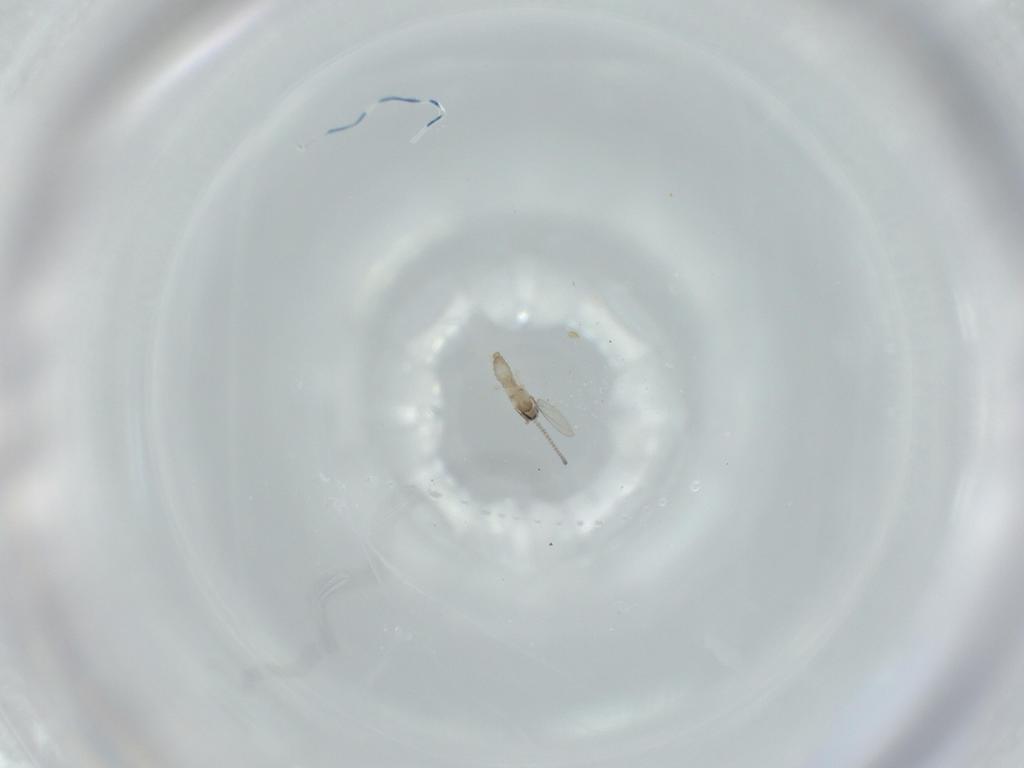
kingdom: Animalia
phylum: Arthropoda
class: Insecta
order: Diptera
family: Cecidomyiidae
